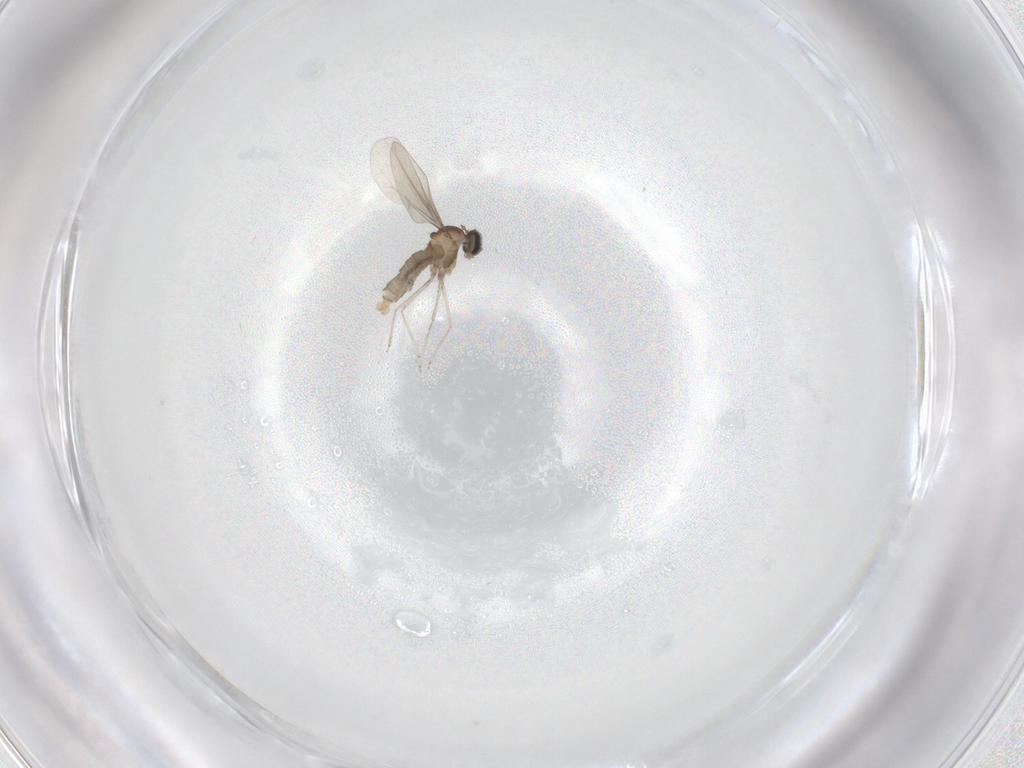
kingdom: Animalia
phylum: Arthropoda
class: Insecta
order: Diptera
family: Cecidomyiidae
